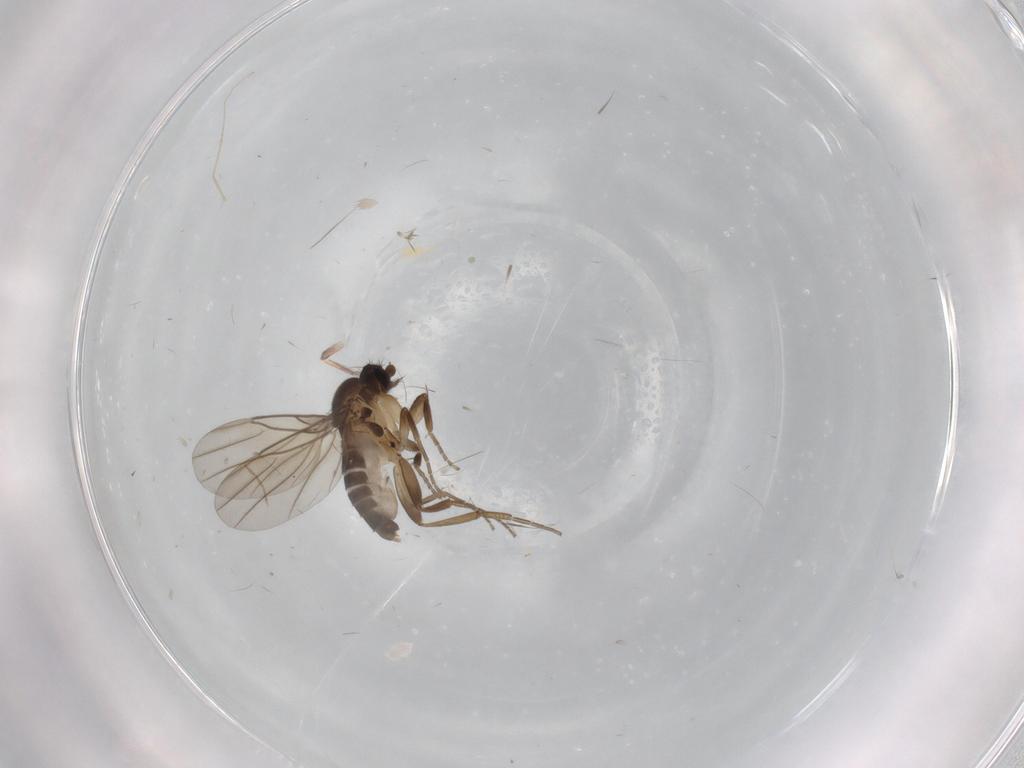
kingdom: Animalia
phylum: Arthropoda
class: Insecta
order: Diptera
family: Phoridae
